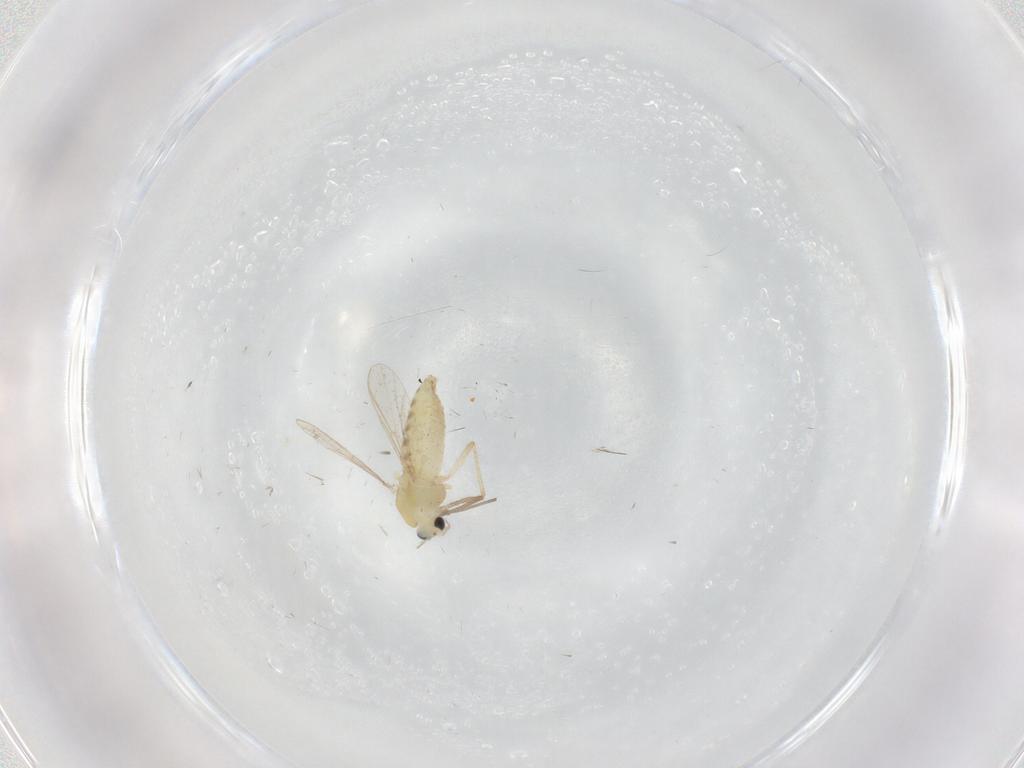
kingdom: Animalia
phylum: Arthropoda
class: Insecta
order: Diptera
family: Chironomidae
